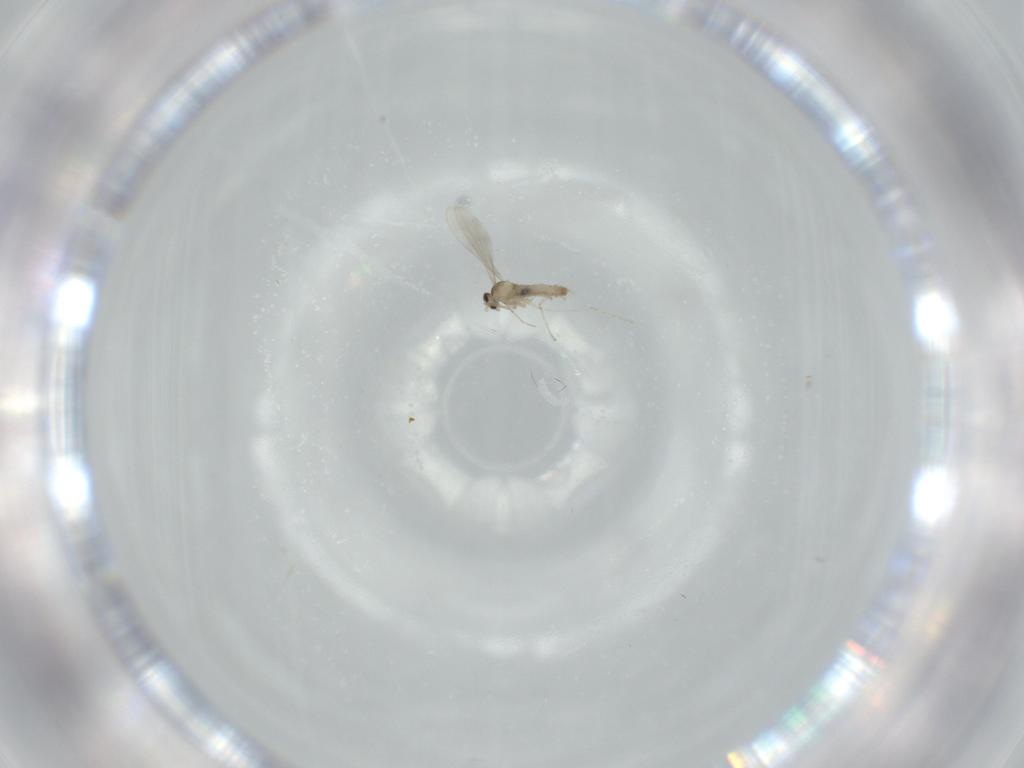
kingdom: Animalia
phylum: Arthropoda
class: Insecta
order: Diptera
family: Cecidomyiidae
